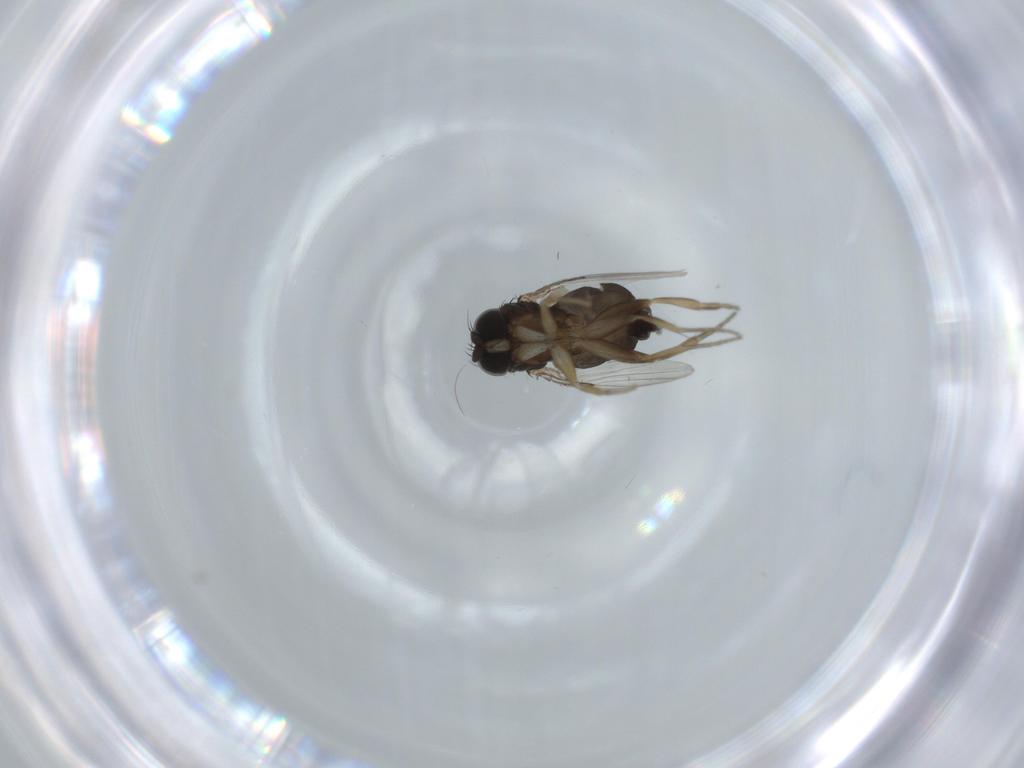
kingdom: Animalia
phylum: Arthropoda
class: Insecta
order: Diptera
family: Phoridae
